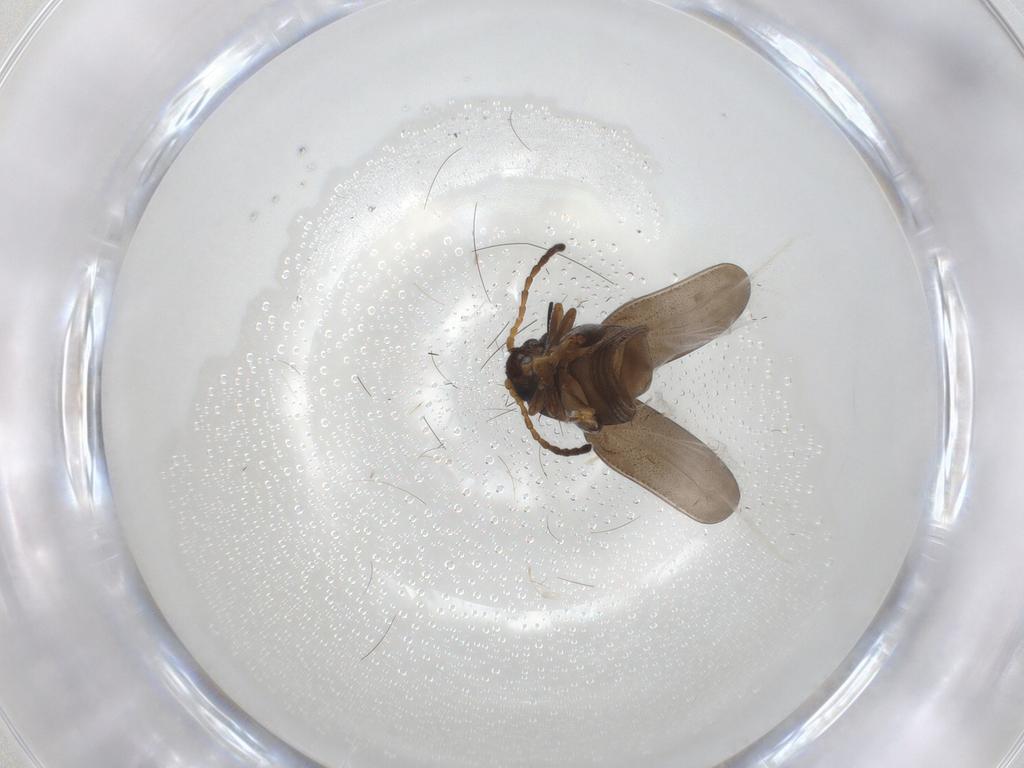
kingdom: Animalia
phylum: Arthropoda
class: Insecta
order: Coleoptera
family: Chrysomelidae
